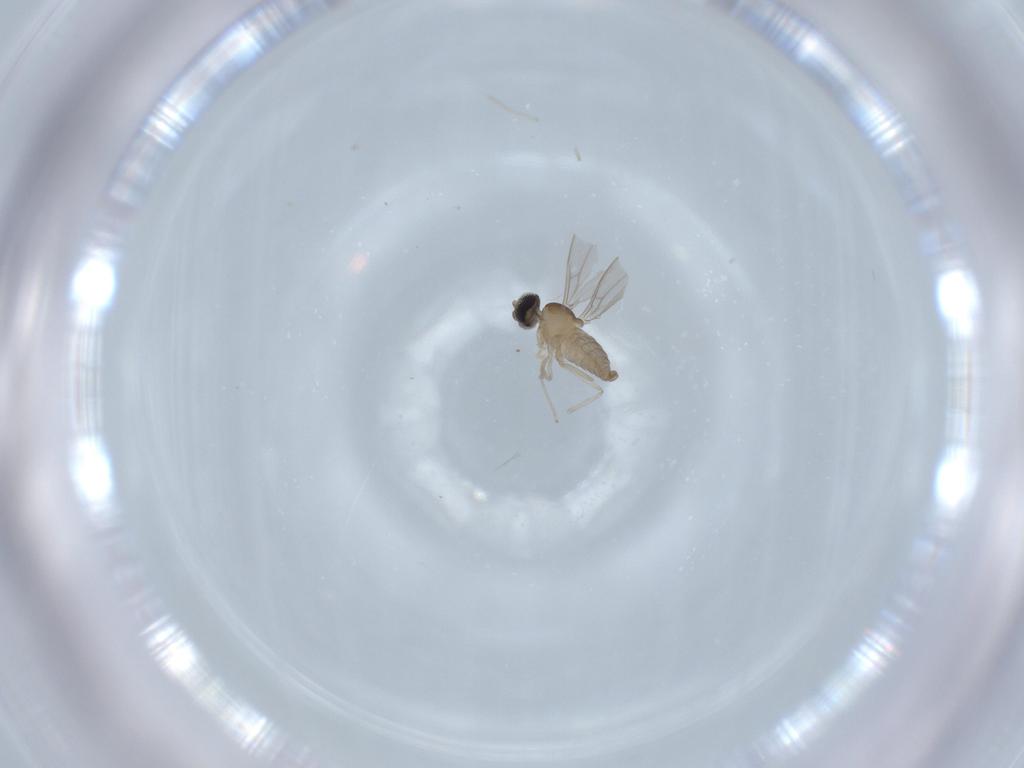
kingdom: Animalia
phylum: Arthropoda
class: Insecta
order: Diptera
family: Cecidomyiidae
